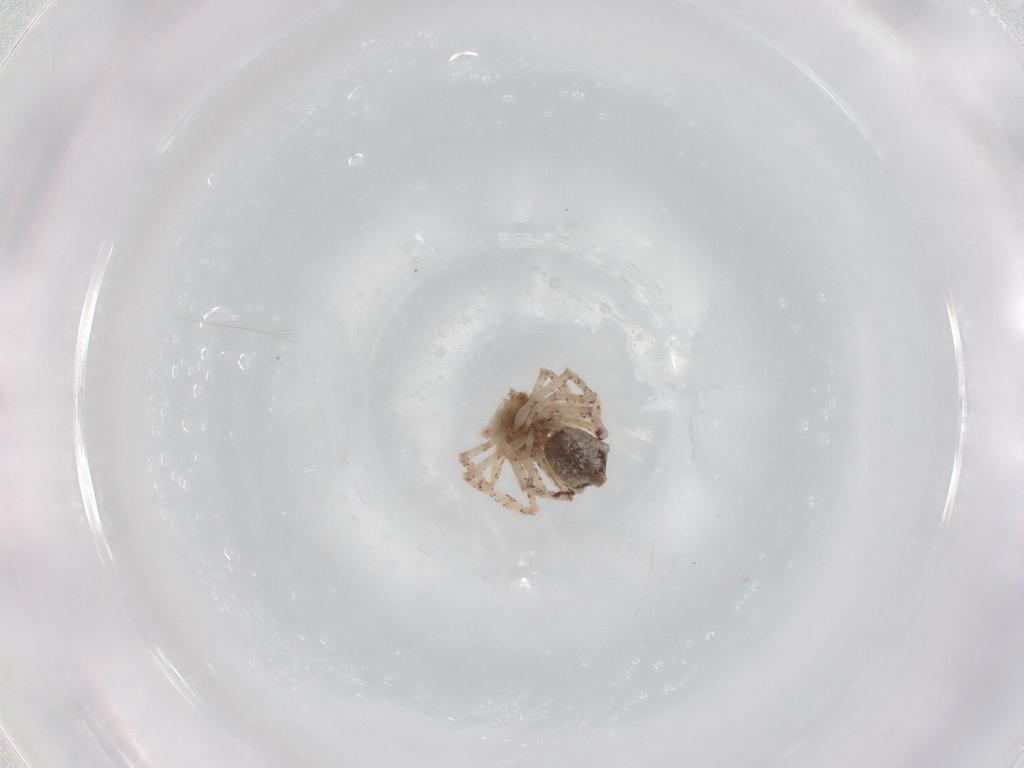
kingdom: Animalia
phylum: Arthropoda
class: Arachnida
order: Araneae
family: Philodromidae
